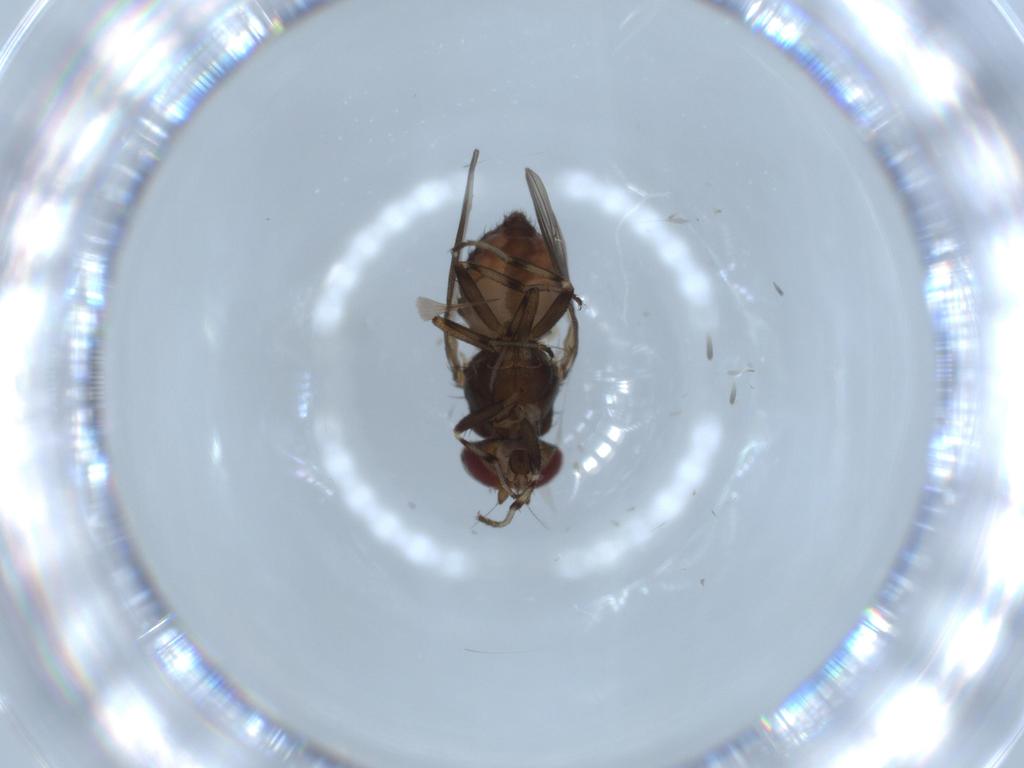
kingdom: Animalia
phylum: Arthropoda
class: Insecta
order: Diptera
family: Heleomyzidae
